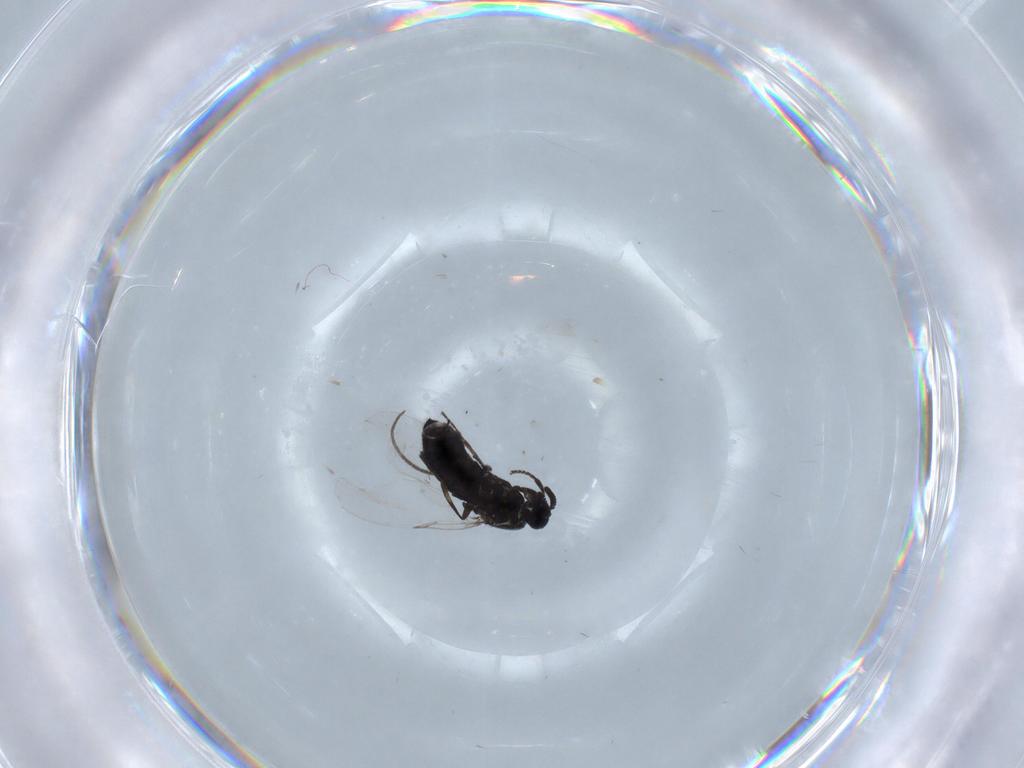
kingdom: Animalia
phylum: Arthropoda
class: Insecta
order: Diptera
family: Scatopsidae
